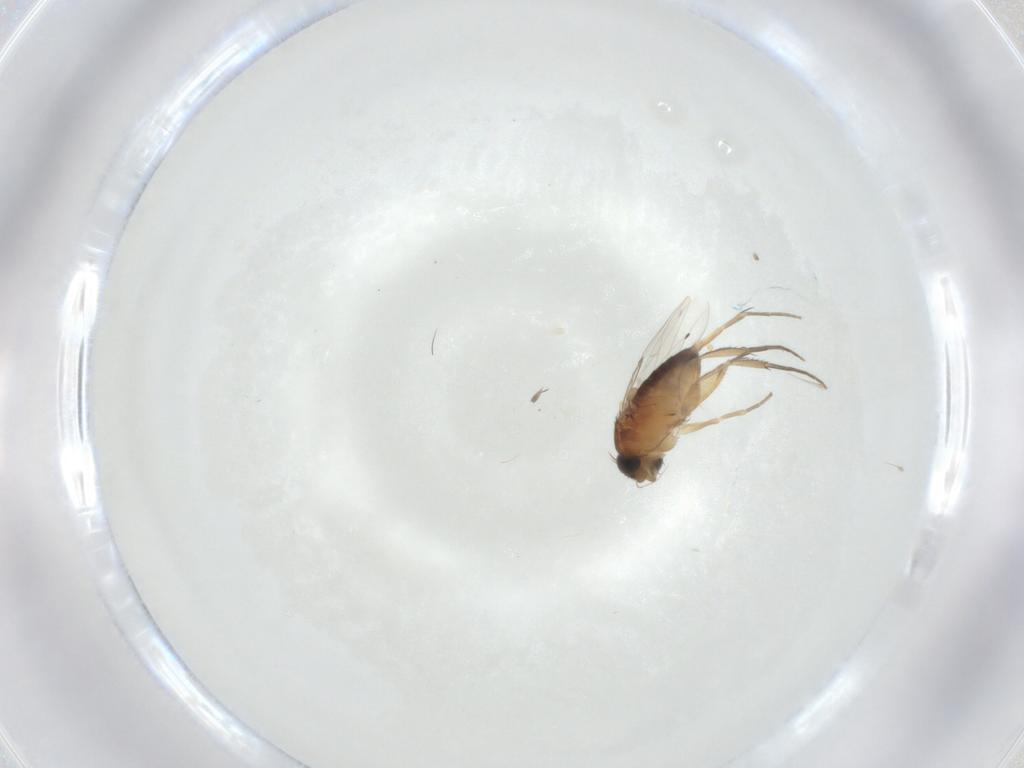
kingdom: Animalia
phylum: Arthropoda
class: Insecta
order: Diptera
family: Phoridae
